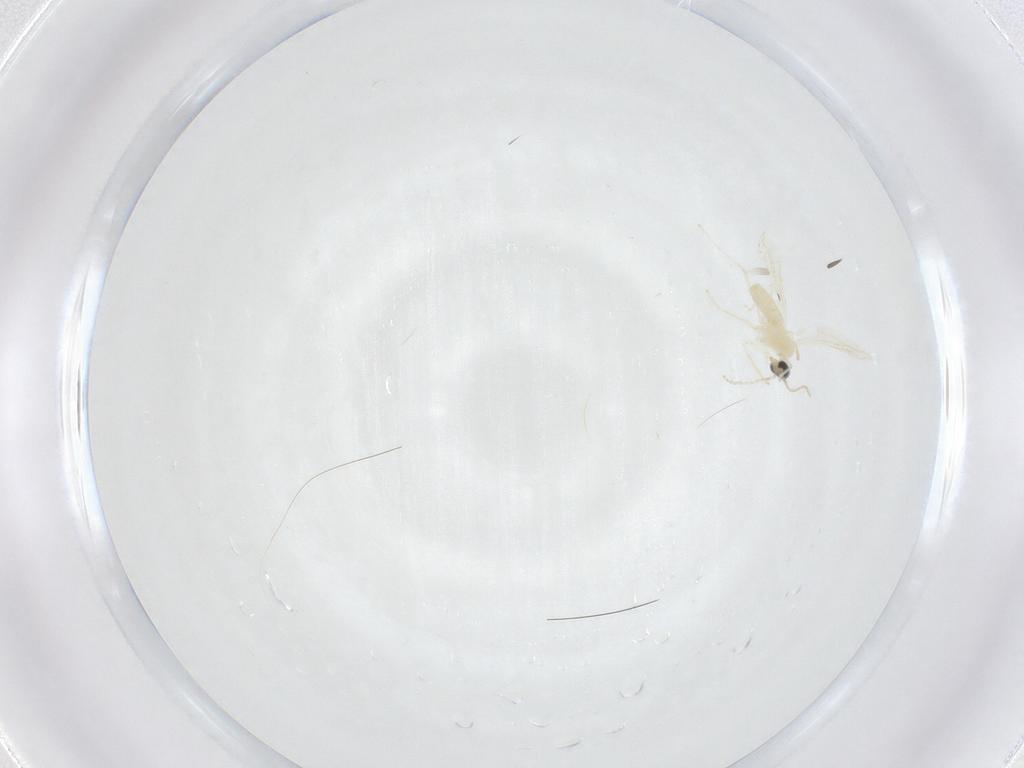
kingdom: Animalia
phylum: Arthropoda
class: Insecta
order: Diptera
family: Cecidomyiidae
